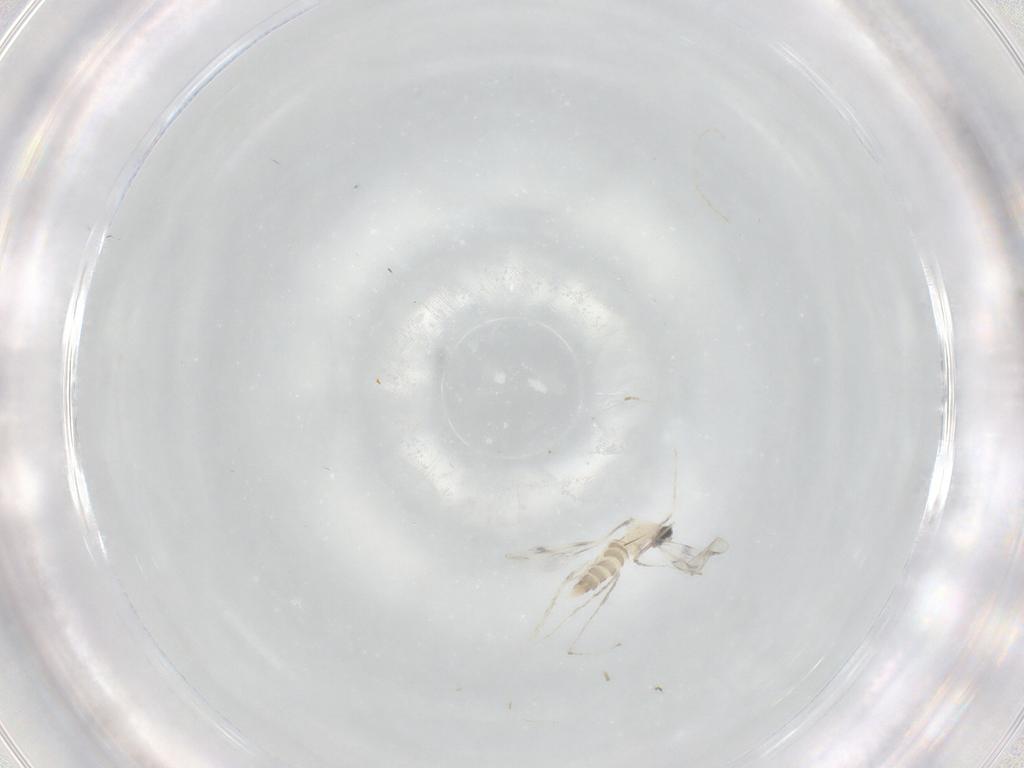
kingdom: Animalia
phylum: Arthropoda
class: Insecta
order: Diptera
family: Cecidomyiidae
